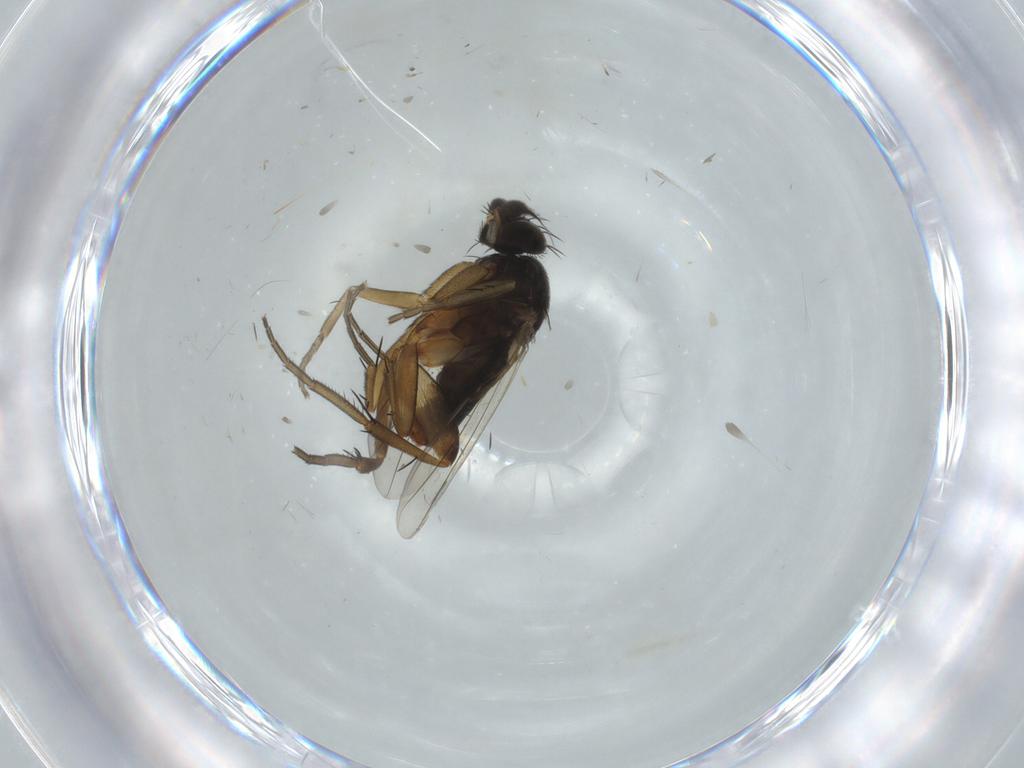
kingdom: Animalia
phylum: Arthropoda
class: Insecta
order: Diptera
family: Phoridae
